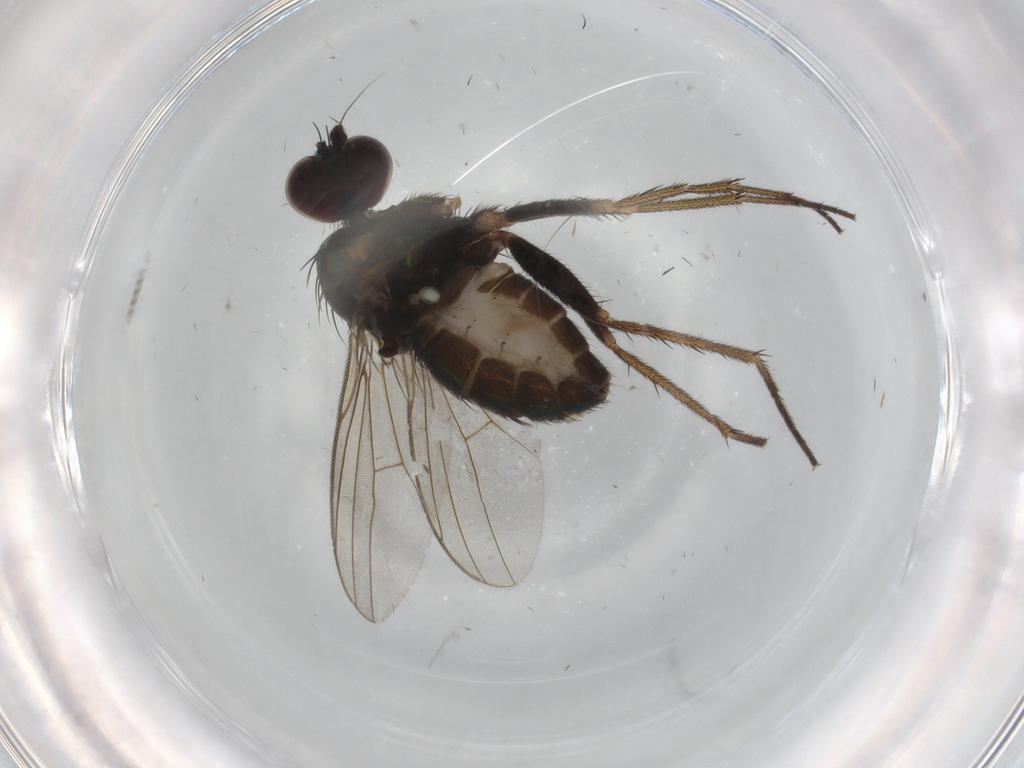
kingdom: Animalia
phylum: Arthropoda
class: Insecta
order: Diptera
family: Dolichopodidae
